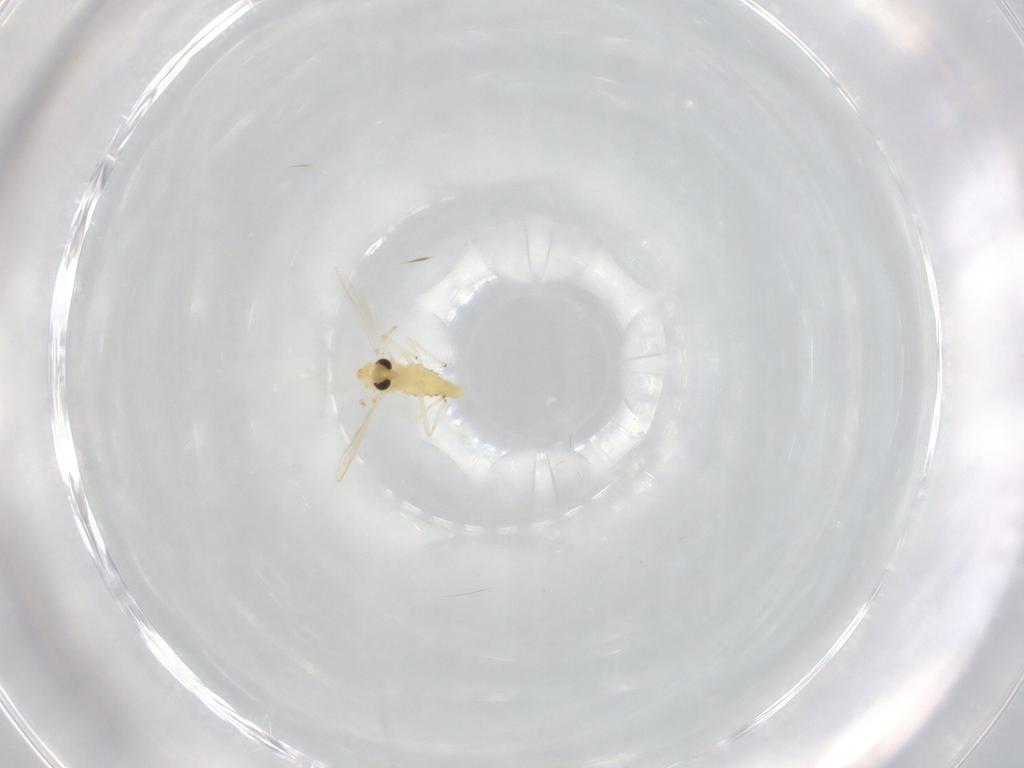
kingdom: Animalia
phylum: Arthropoda
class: Insecta
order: Diptera
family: Chironomidae
